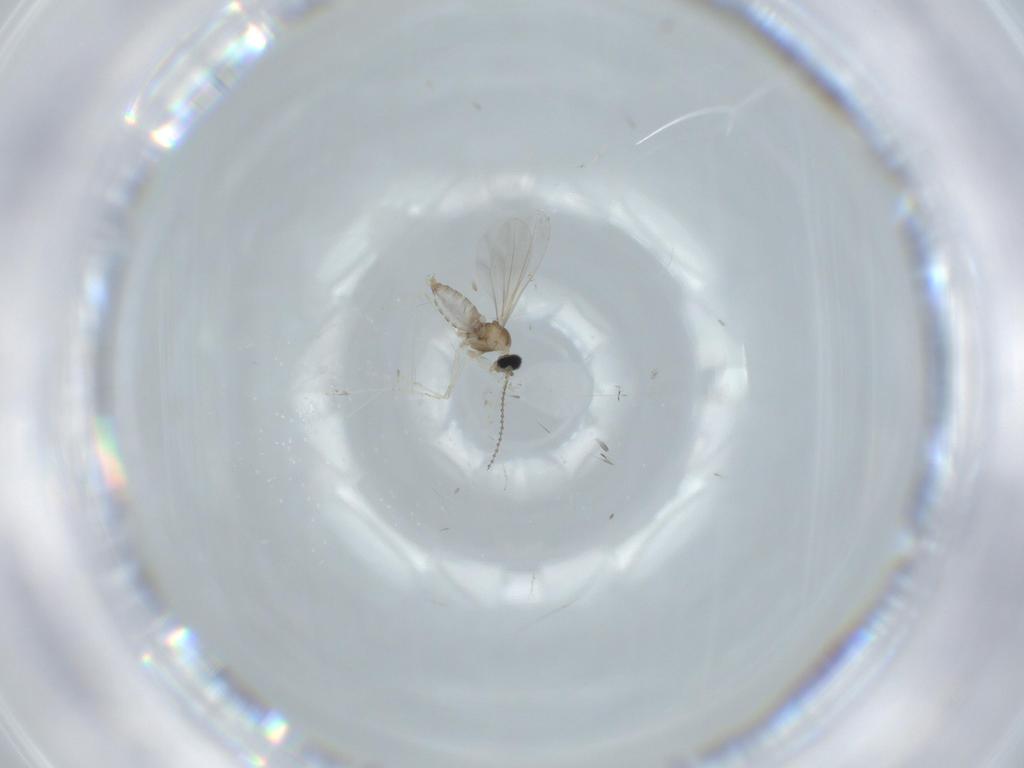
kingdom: Animalia
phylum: Arthropoda
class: Insecta
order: Diptera
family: Cecidomyiidae
